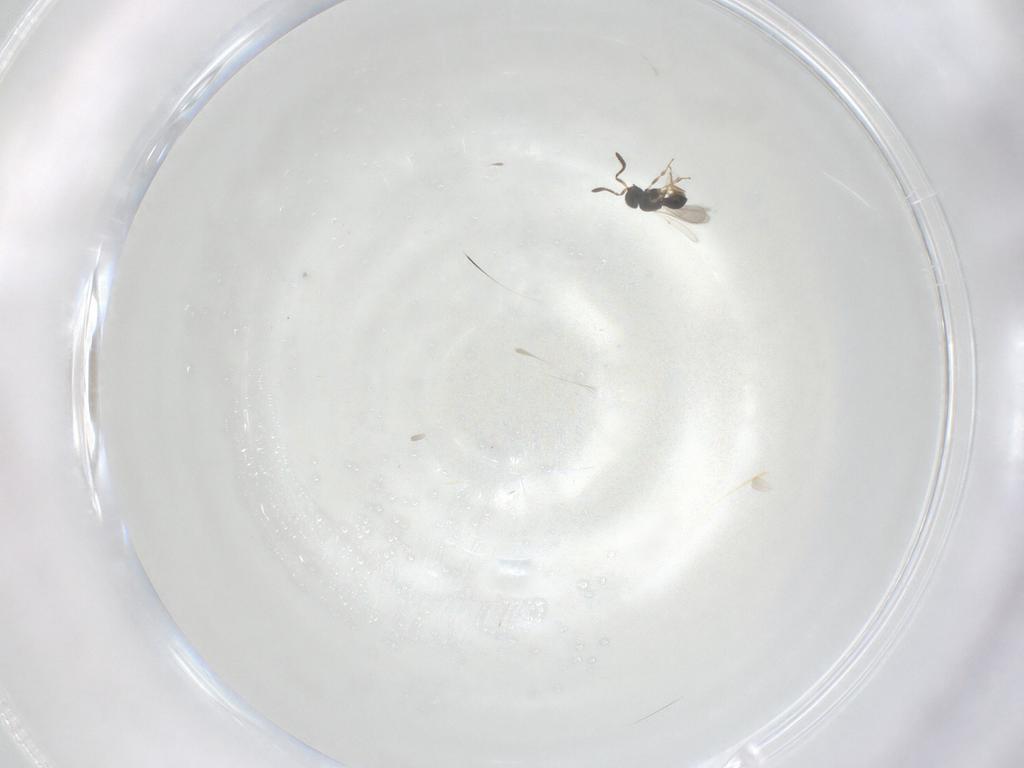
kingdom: Animalia
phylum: Arthropoda
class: Insecta
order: Hymenoptera
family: Scelionidae
